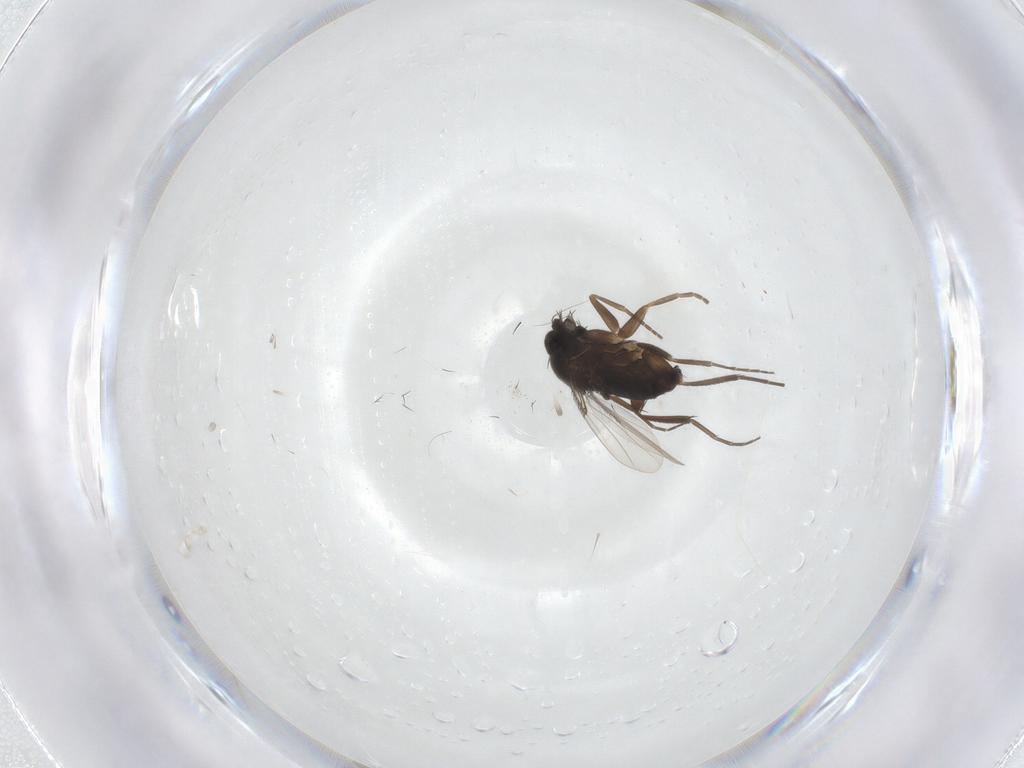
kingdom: Animalia
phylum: Arthropoda
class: Insecta
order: Diptera
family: Phoridae
